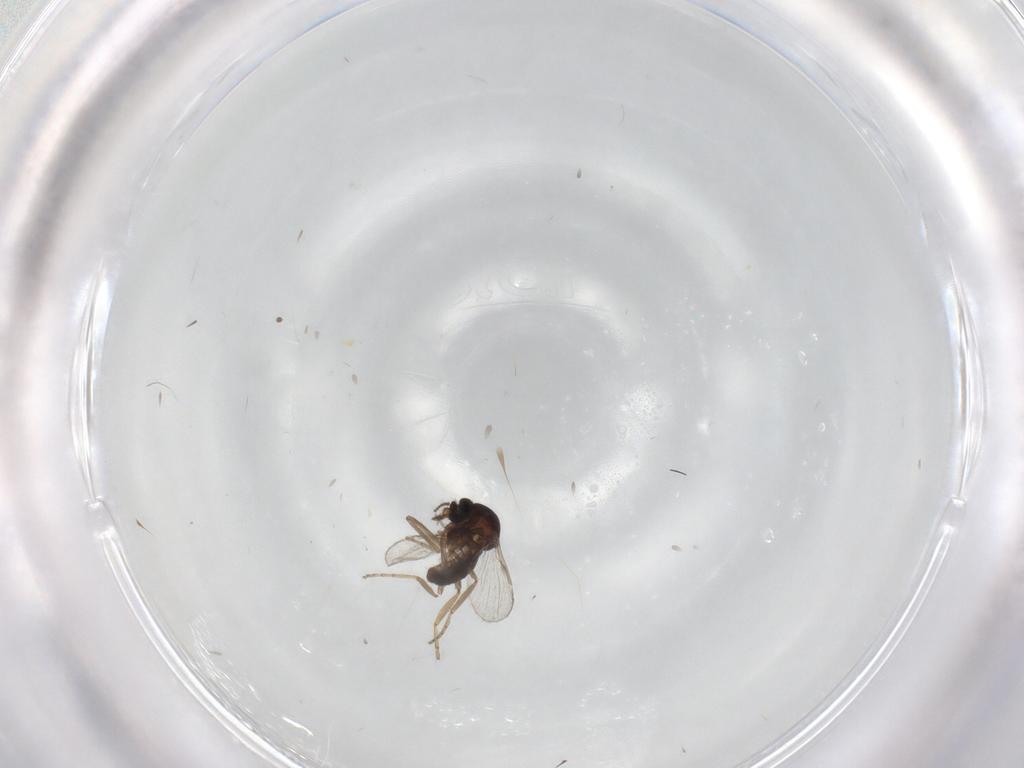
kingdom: Animalia
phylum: Arthropoda
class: Insecta
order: Diptera
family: Ceratopogonidae
